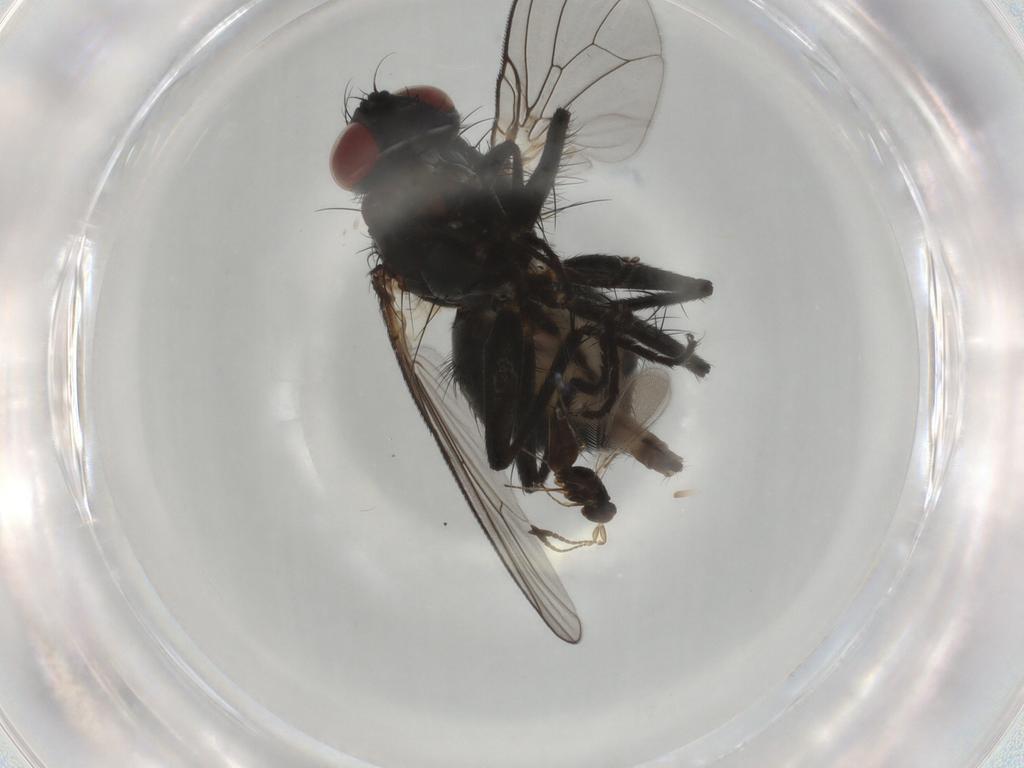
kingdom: Animalia
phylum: Arthropoda
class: Insecta
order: Diptera
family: Muscidae
